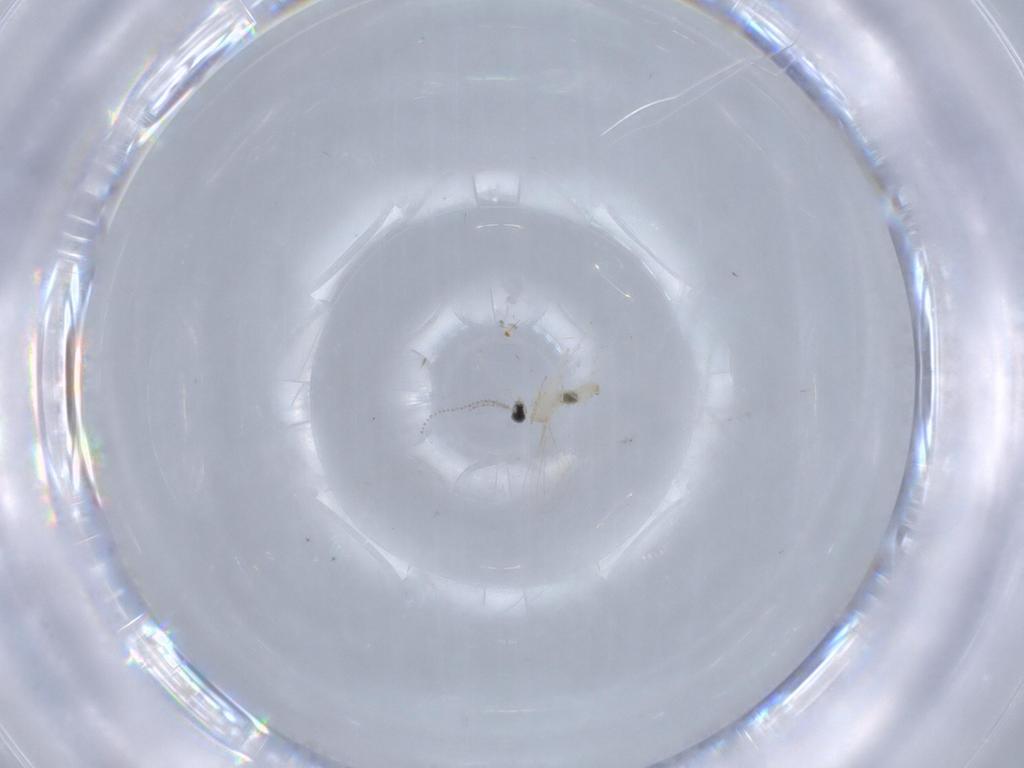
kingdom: Animalia
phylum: Arthropoda
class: Insecta
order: Diptera
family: Cecidomyiidae
